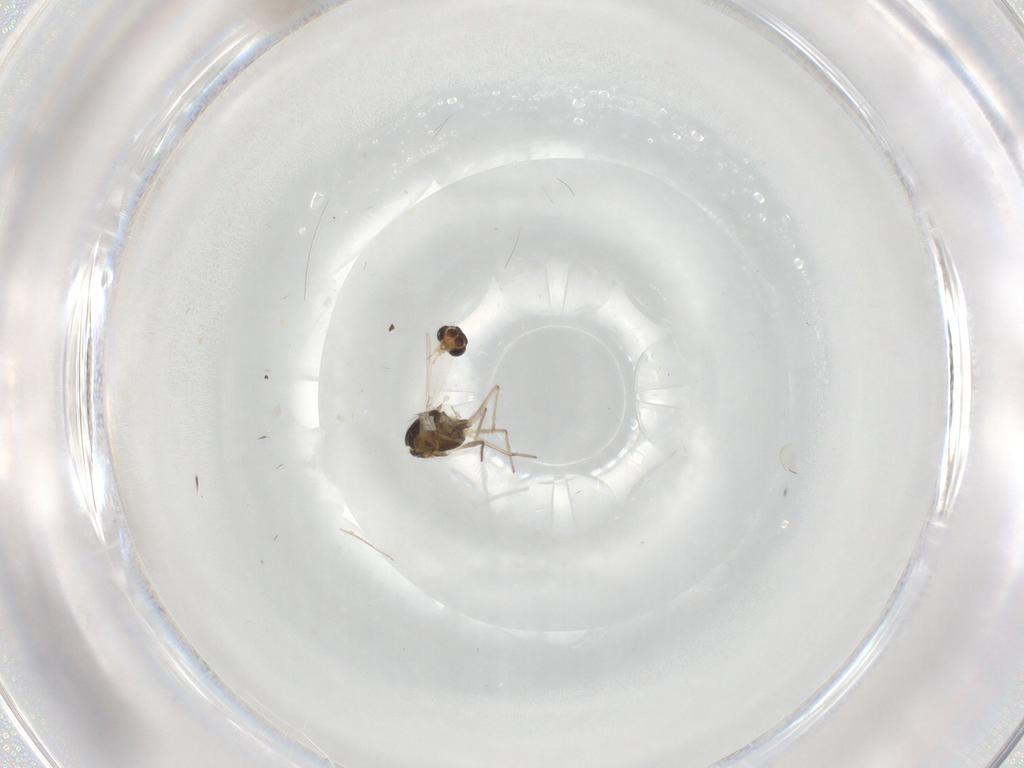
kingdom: Animalia
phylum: Arthropoda
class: Insecta
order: Diptera
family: Cecidomyiidae
